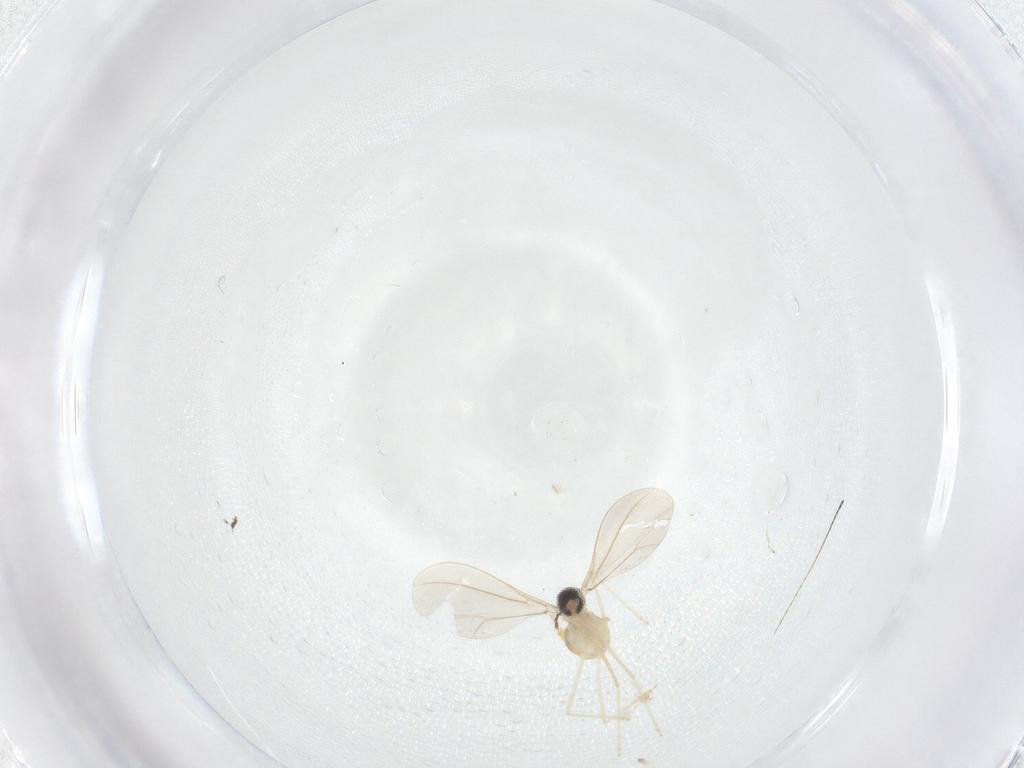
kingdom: Animalia
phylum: Arthropoda
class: Insecta
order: Diptera
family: Cecidomyiidae
